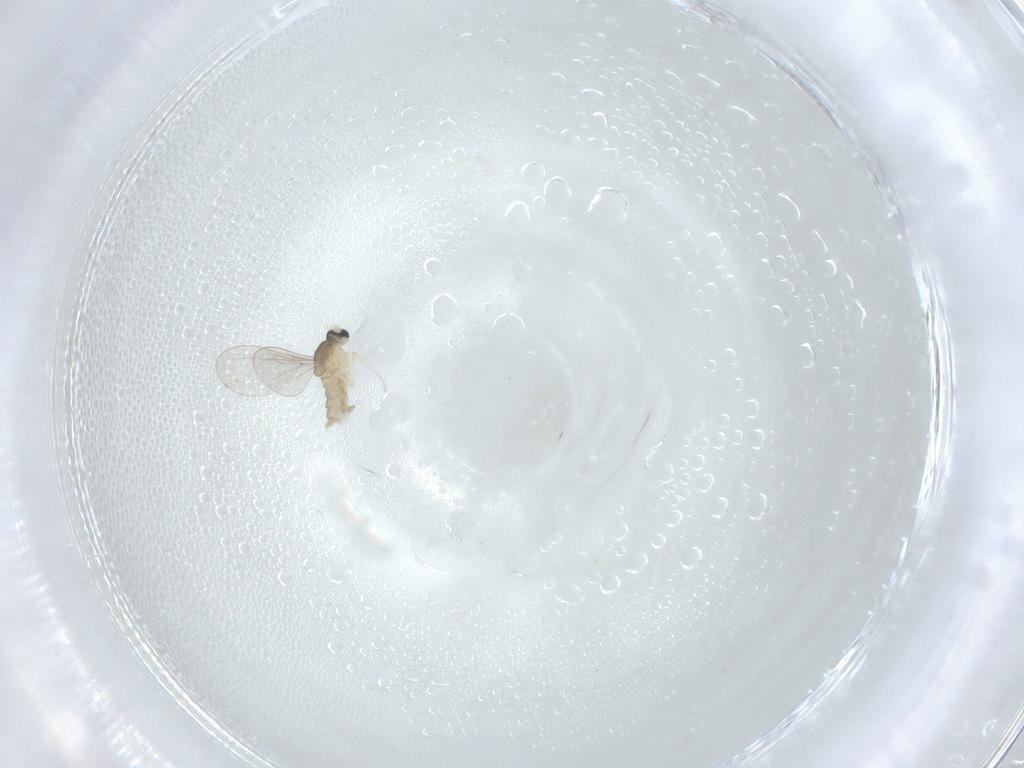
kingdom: Animalia
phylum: Arthropoda
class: Insecta
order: Diptera
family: Cecidomyiidae
